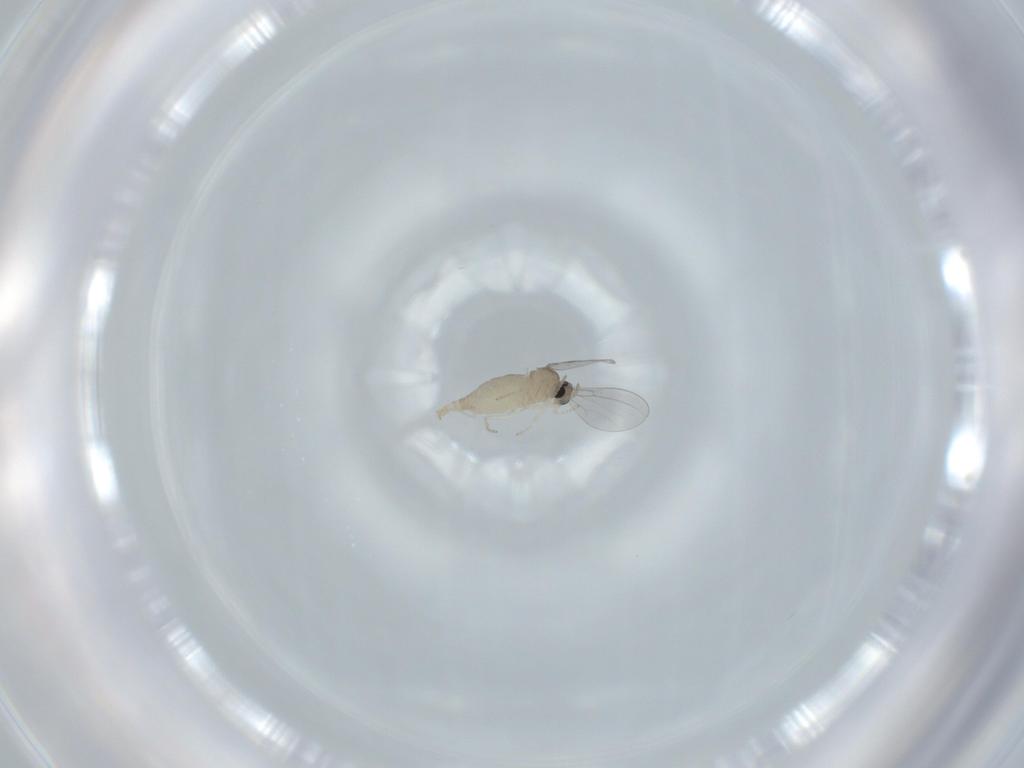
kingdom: Animalia
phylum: Arthropoda
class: Insecta
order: Diptera
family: Cecidomyiidae
